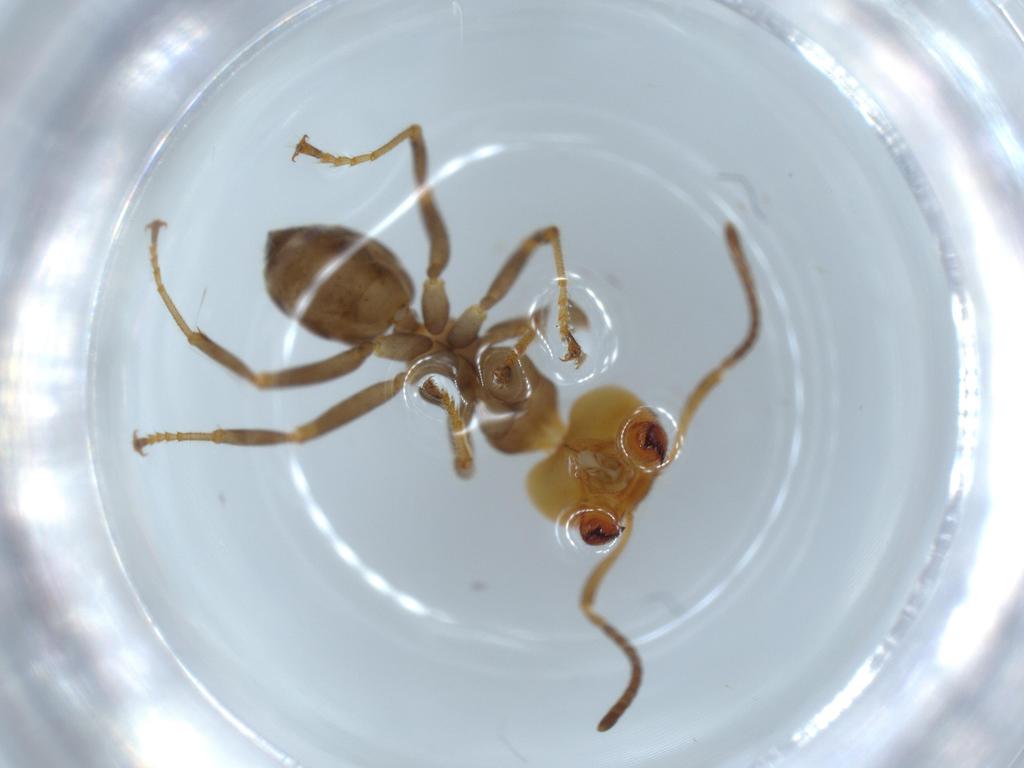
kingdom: Animalia
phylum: Arthropoda
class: Insecta
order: Hymenoptera
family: Formicidae
